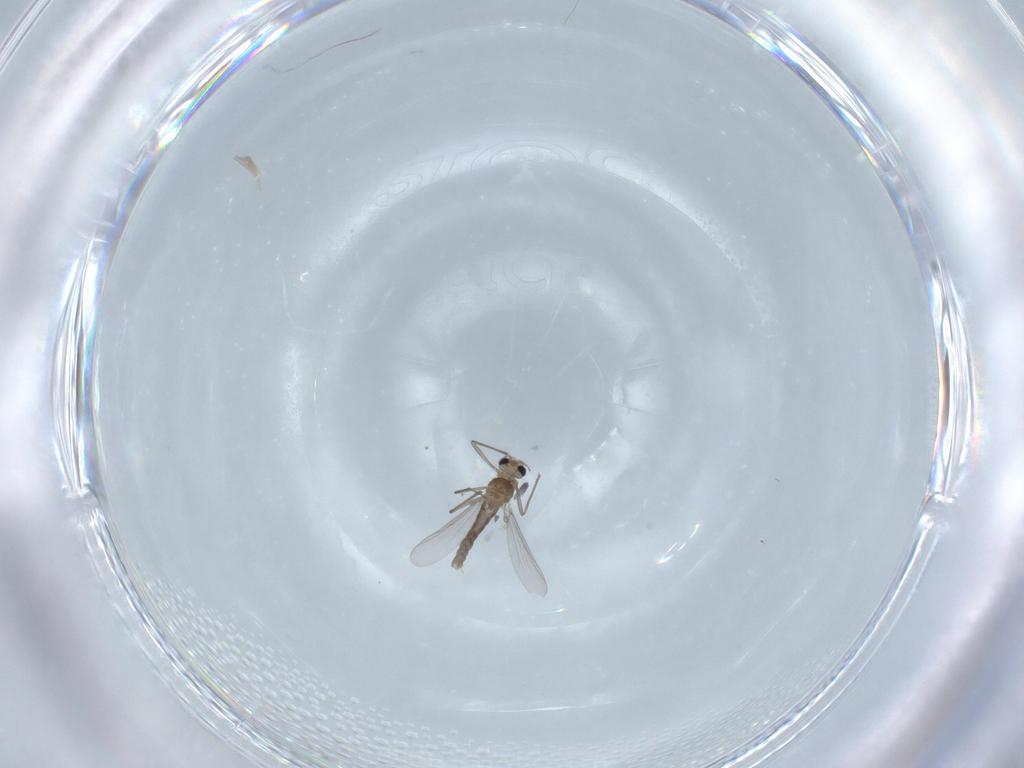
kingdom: Animalia
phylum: Arthropoda
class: Insecta
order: Diptera
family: Chironomidae
